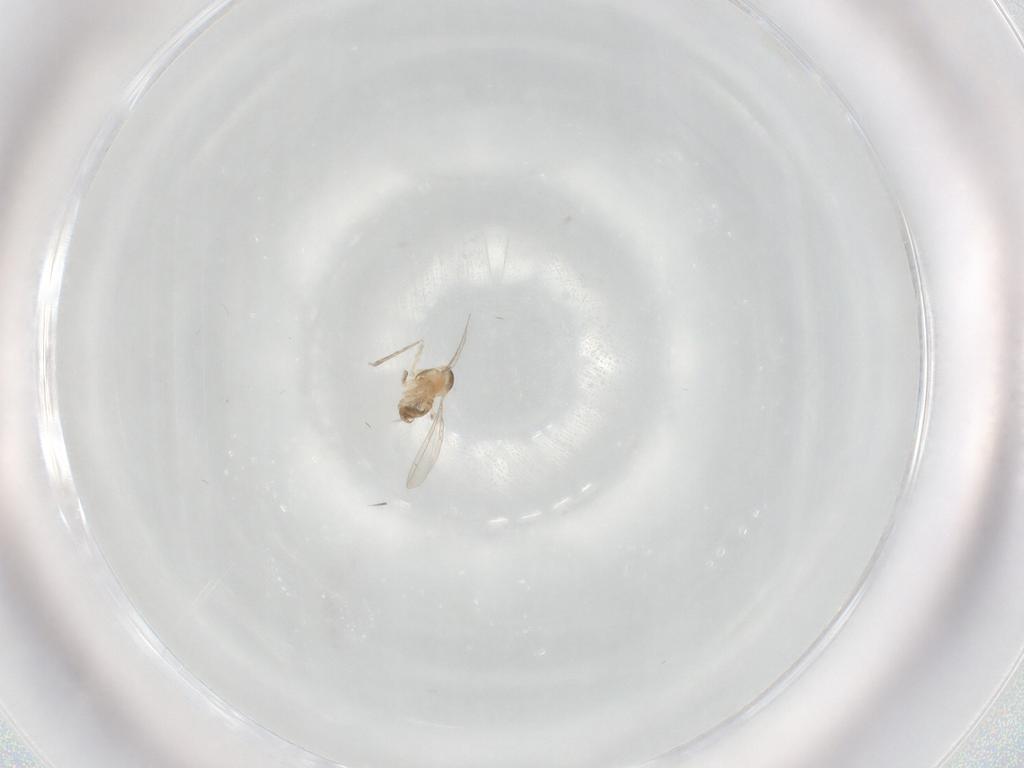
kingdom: Animalia
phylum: Arthropoda
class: Insecta
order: Diptera
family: Cecidomyiidae
